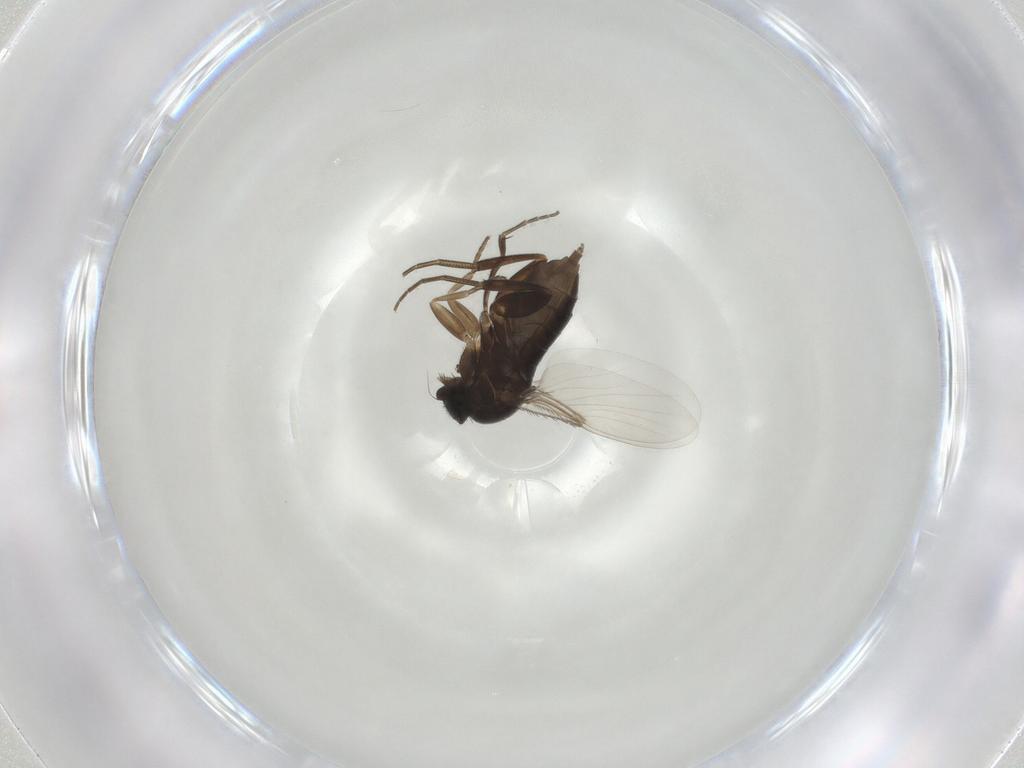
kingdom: Animalia
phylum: Arthropoda
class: Insecta
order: Diptera
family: Phoridae
